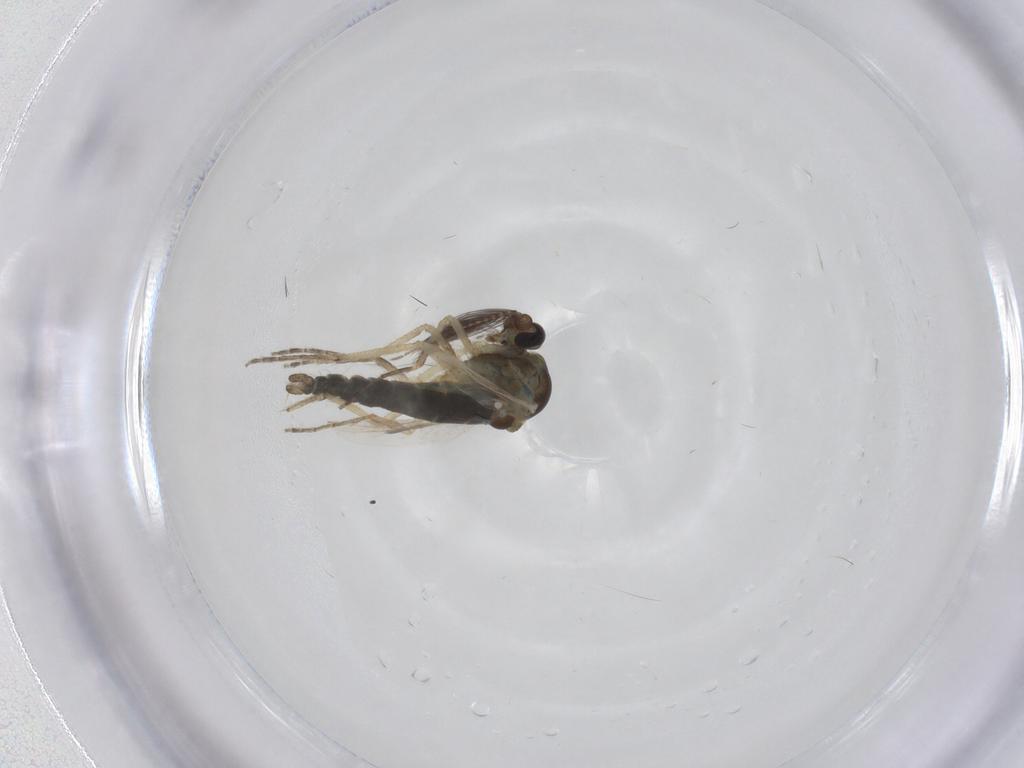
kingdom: Animalia
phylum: Arthropoda
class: Insecta
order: Diptera
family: Ceratopogonidae
